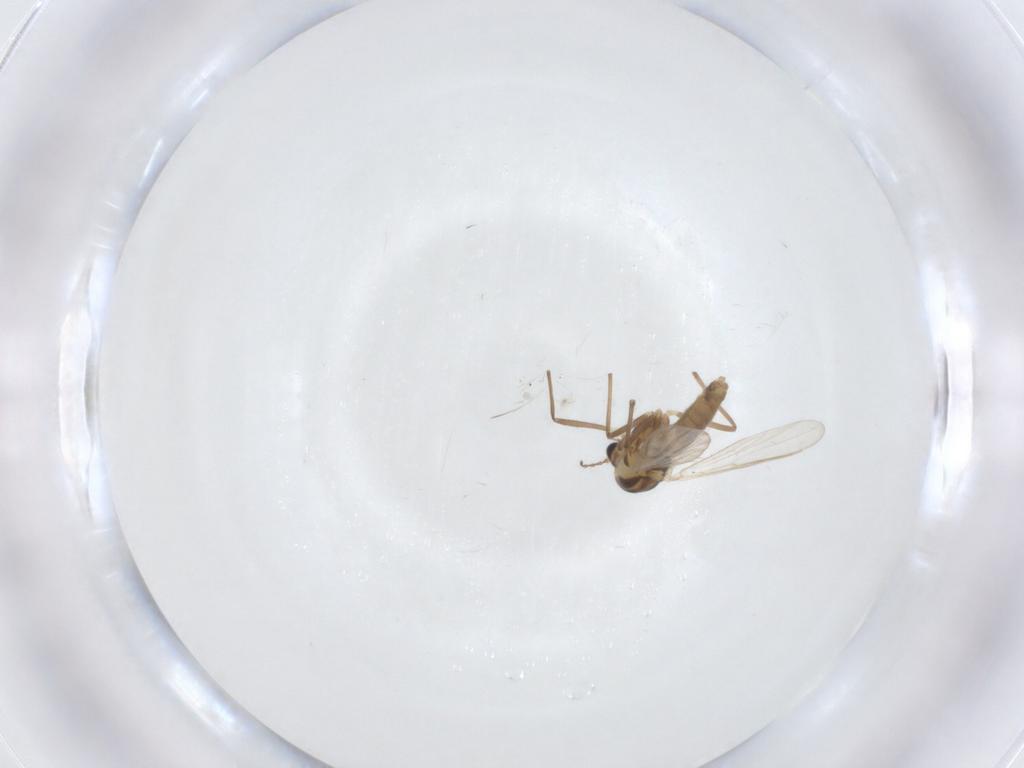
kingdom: Animalia
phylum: Arthropoda
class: Insecta
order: Diptera
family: Chironomidae
